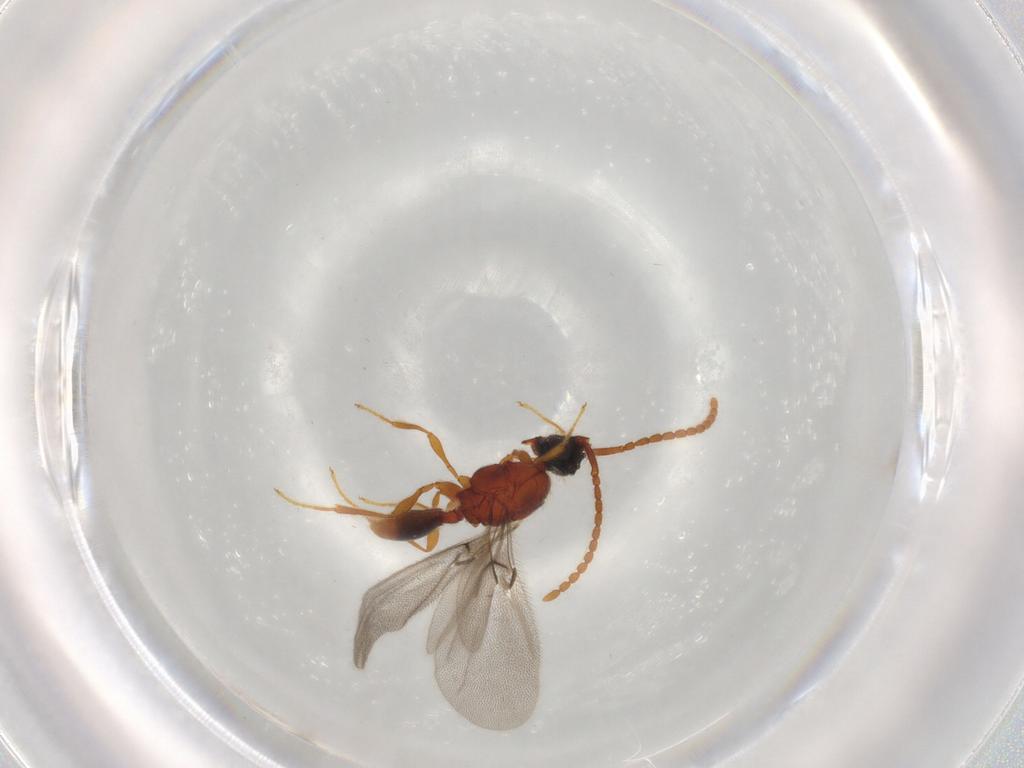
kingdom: Animalia
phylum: Arthropoda
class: Insecta
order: Hymenoptera
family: Diapriidae
